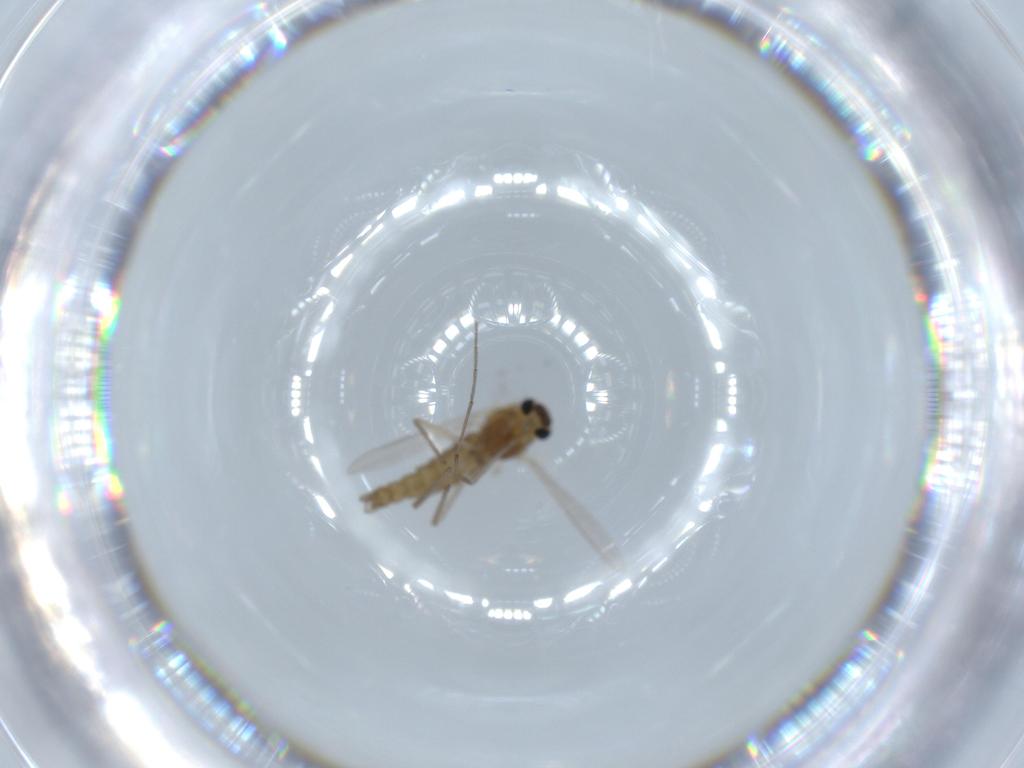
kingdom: Animalia
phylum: Arthropoda
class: Insecta
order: Diptera
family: Chironomidae
